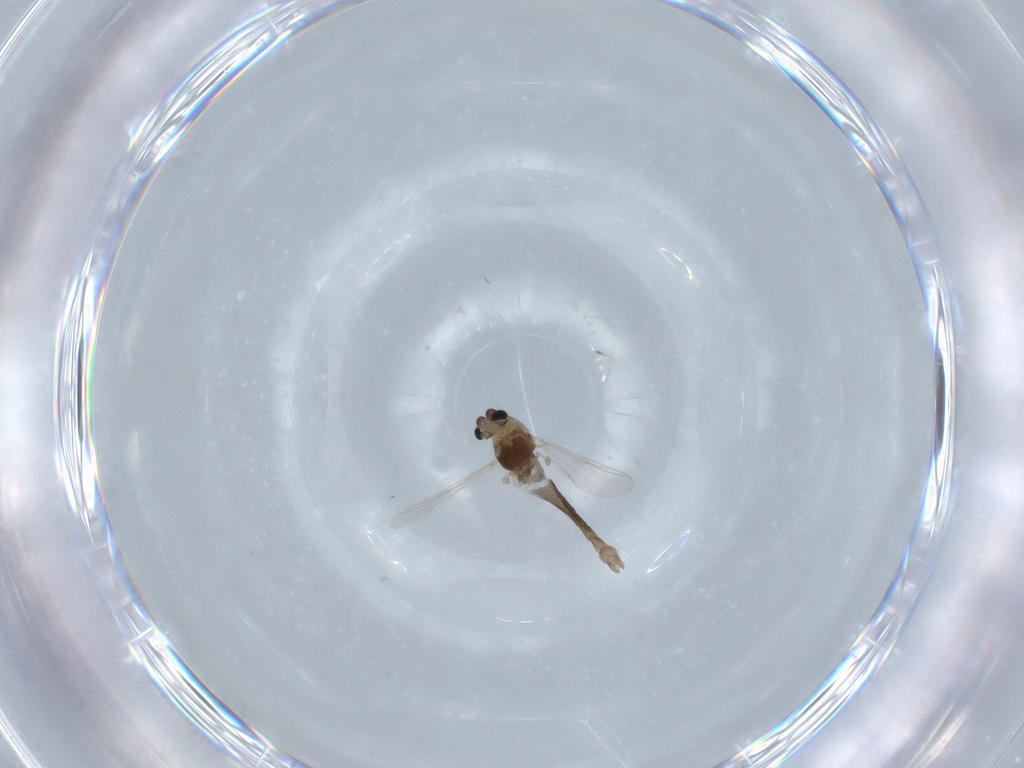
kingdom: Animalia
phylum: Arthropoda
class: Insecta
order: Diptera
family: Chironomidae
